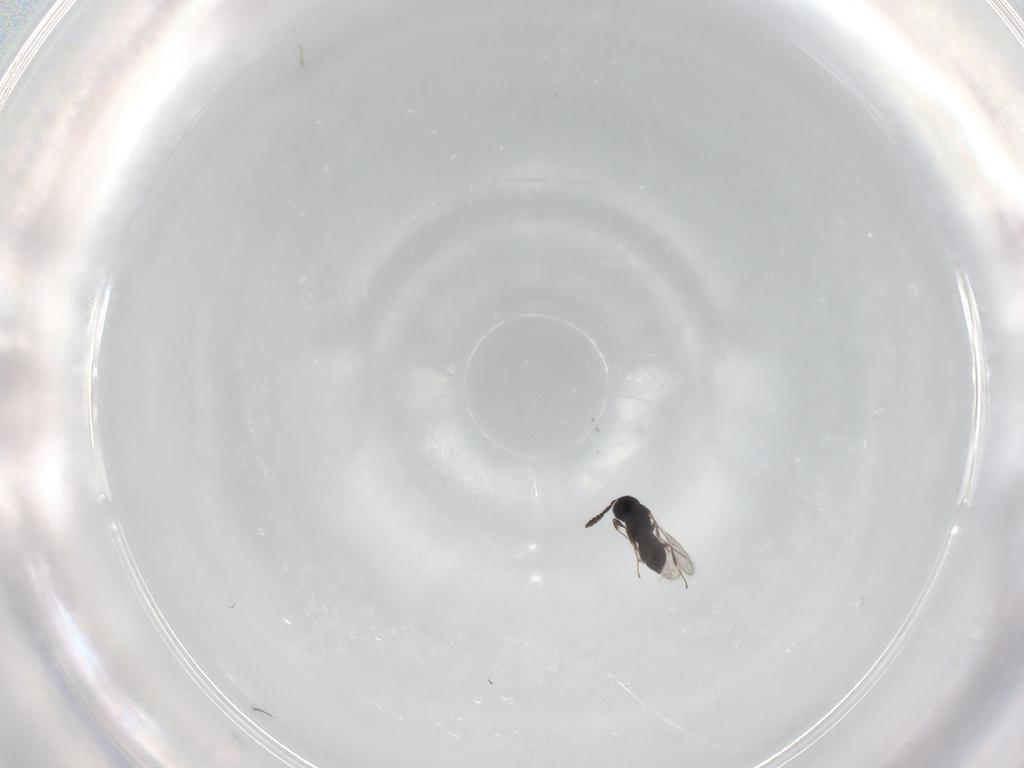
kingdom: Animalia
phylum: Arthropoda
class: Insecta
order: Hymenoptera
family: Scelionidae
